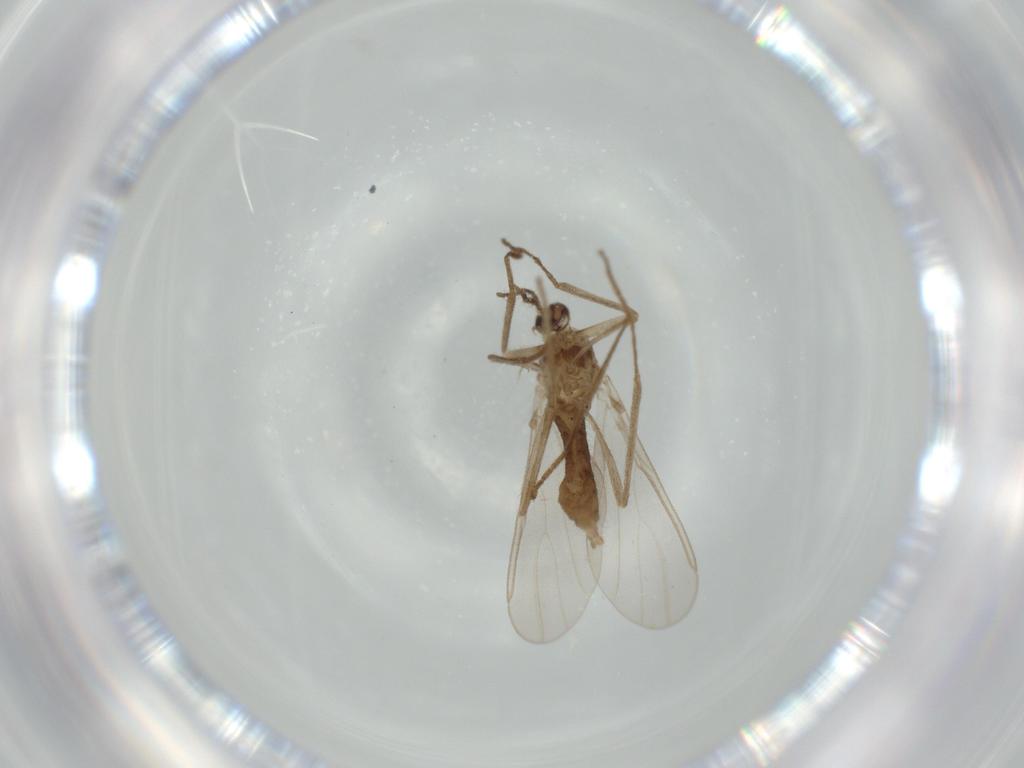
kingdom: Animalia
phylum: Arthropoda
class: Insecta
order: Diptera
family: Cecidomyiidae
